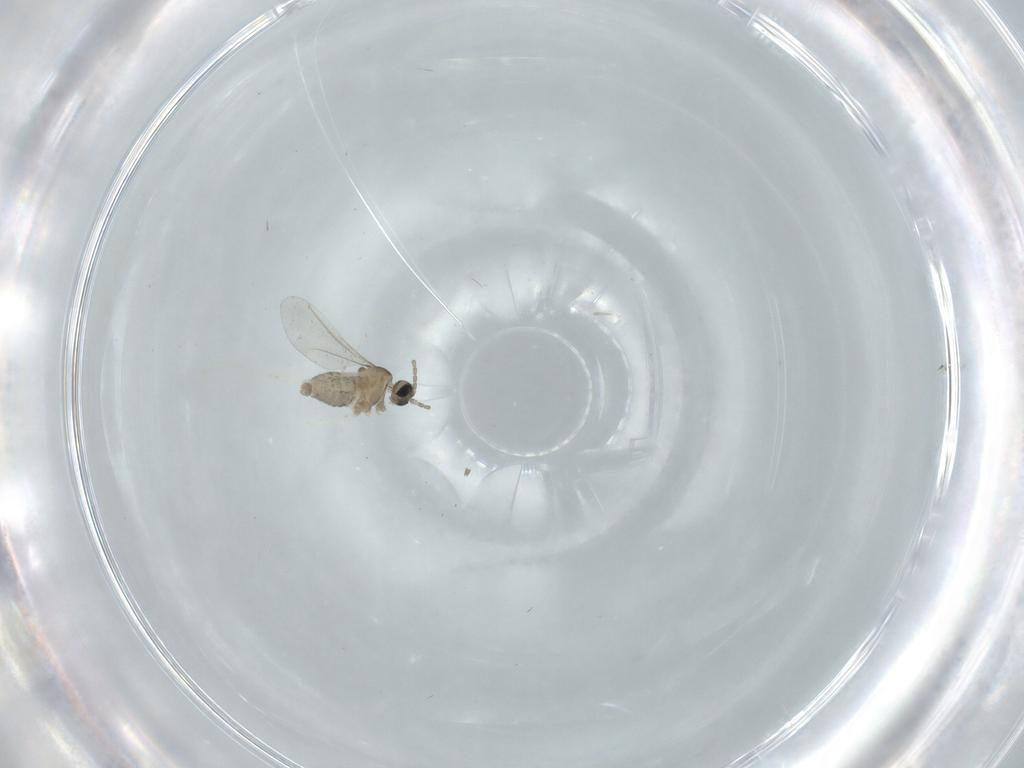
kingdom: Animalia
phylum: Arthropoda
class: Insecta
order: Diptera
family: Cecidomyiidae
